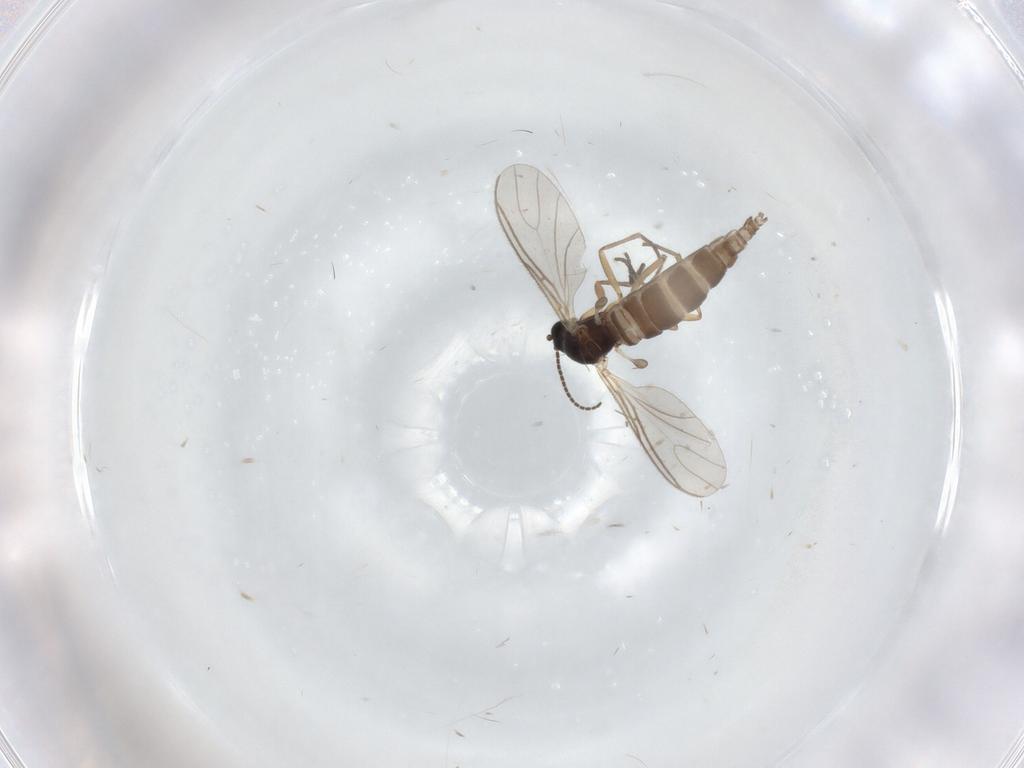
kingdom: Animalia
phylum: Arthropoda
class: Insecta
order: Diptera
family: Sciaridae
